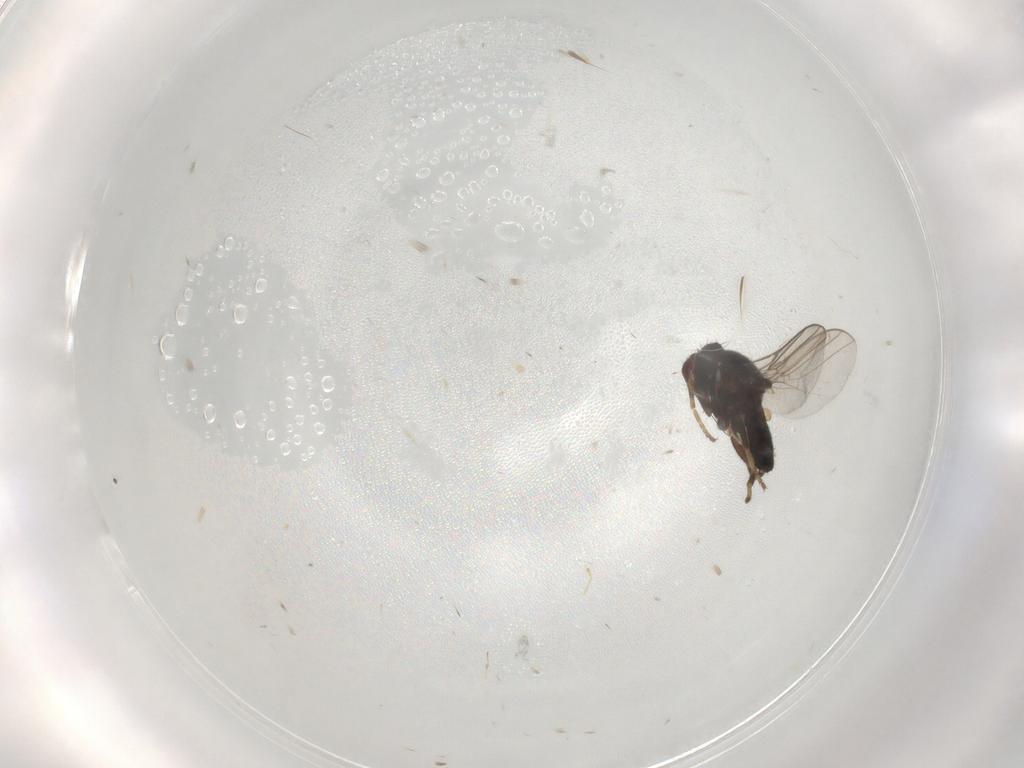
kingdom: Animalia
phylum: Arthropoda
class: Insecta
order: Diptera
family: Chloropidae
